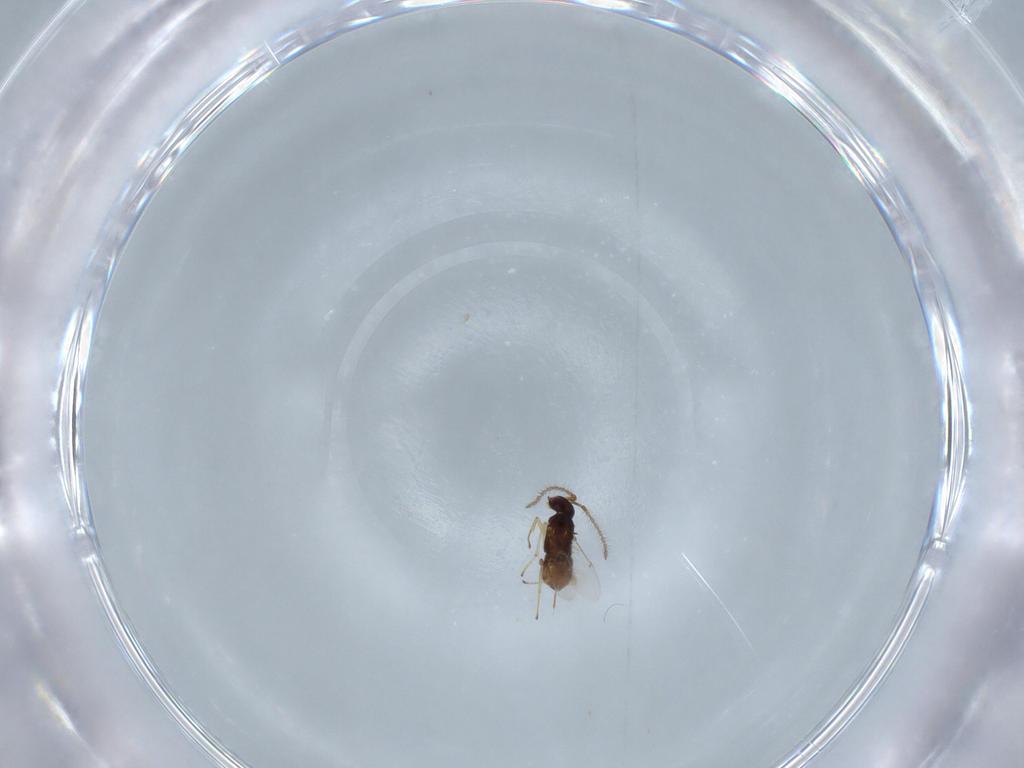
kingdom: Animalia
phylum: Arthropoda
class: Insecta
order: Hymenoptera
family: Encyrtidae
